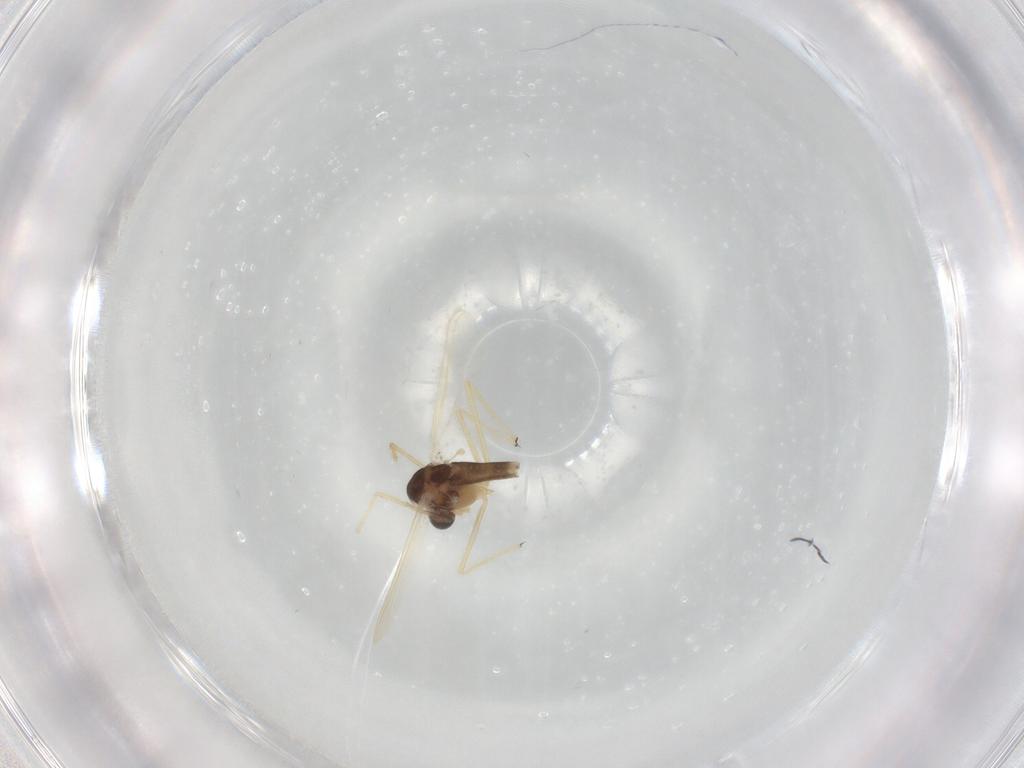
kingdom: Animalia
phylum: Arthropoda
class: Insecta
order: Diptera
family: Chironomidae
